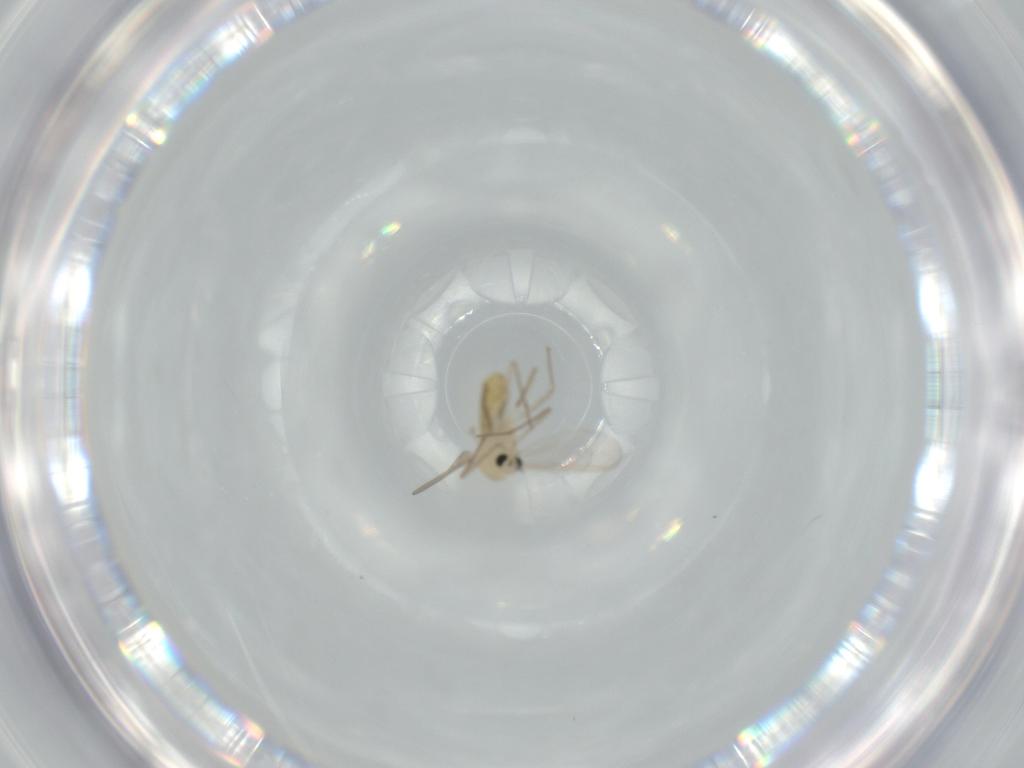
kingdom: Animalia
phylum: Arthropoda
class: Insecta
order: Diptera
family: Chironomidae
